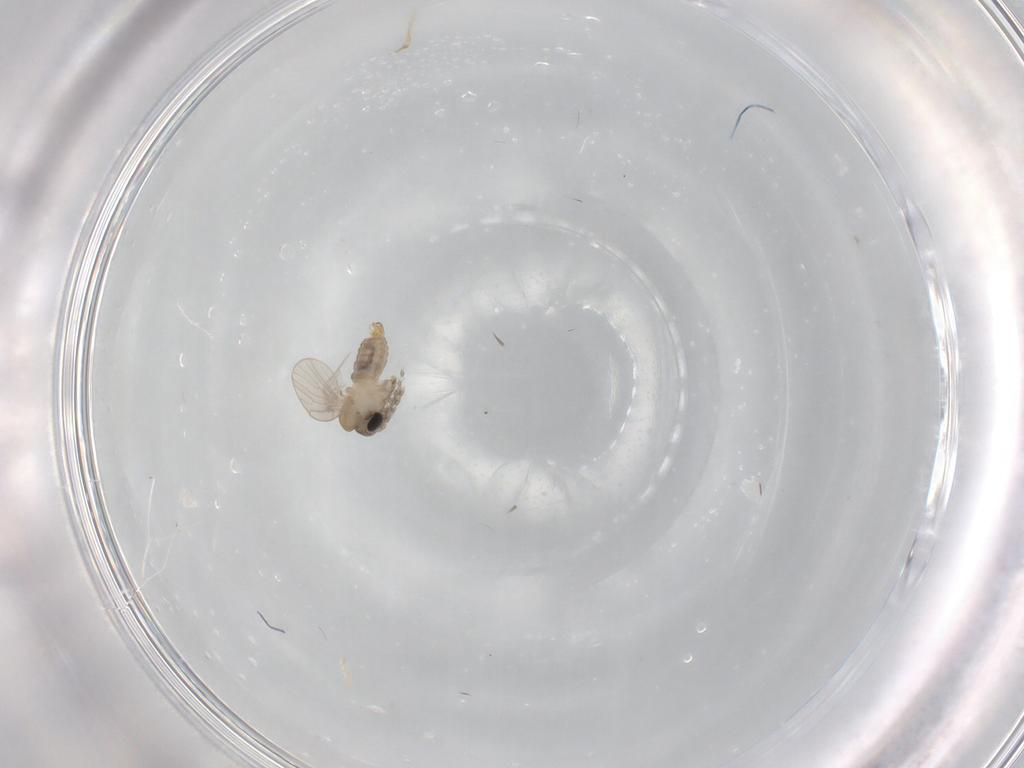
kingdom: Animalia
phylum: Arthropoda
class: Insecta
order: Diptera
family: Psychodidae
